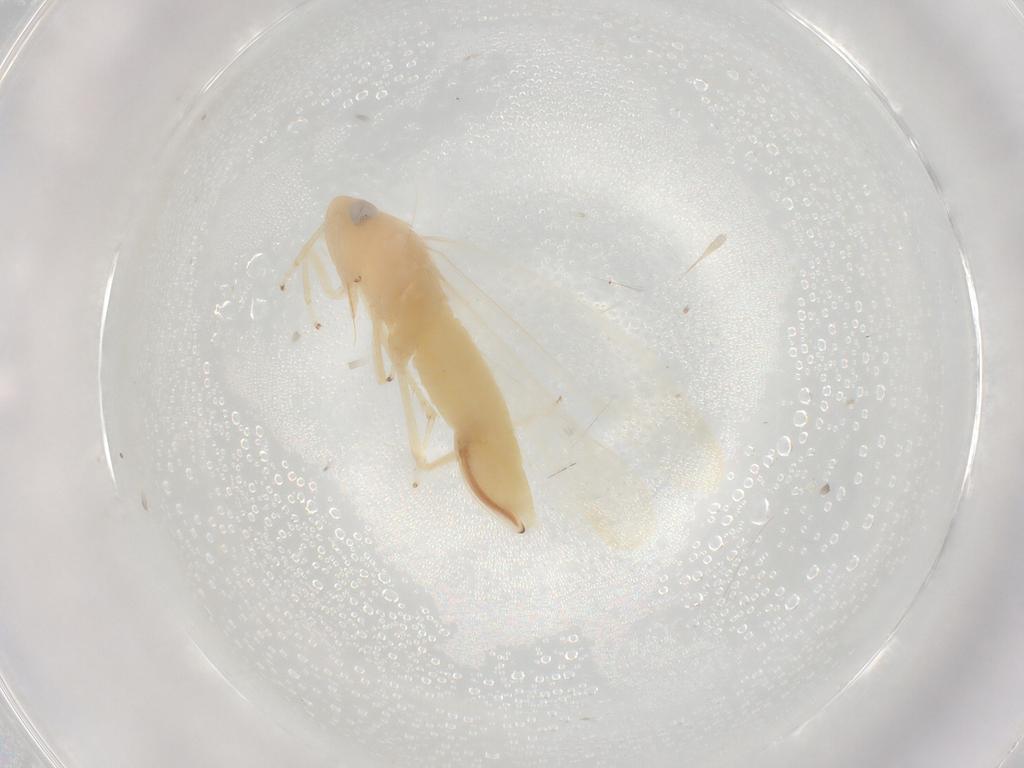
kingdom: Animalia
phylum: Arthropoda
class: Insecta
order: Hemiptera
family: Cicadellidae
